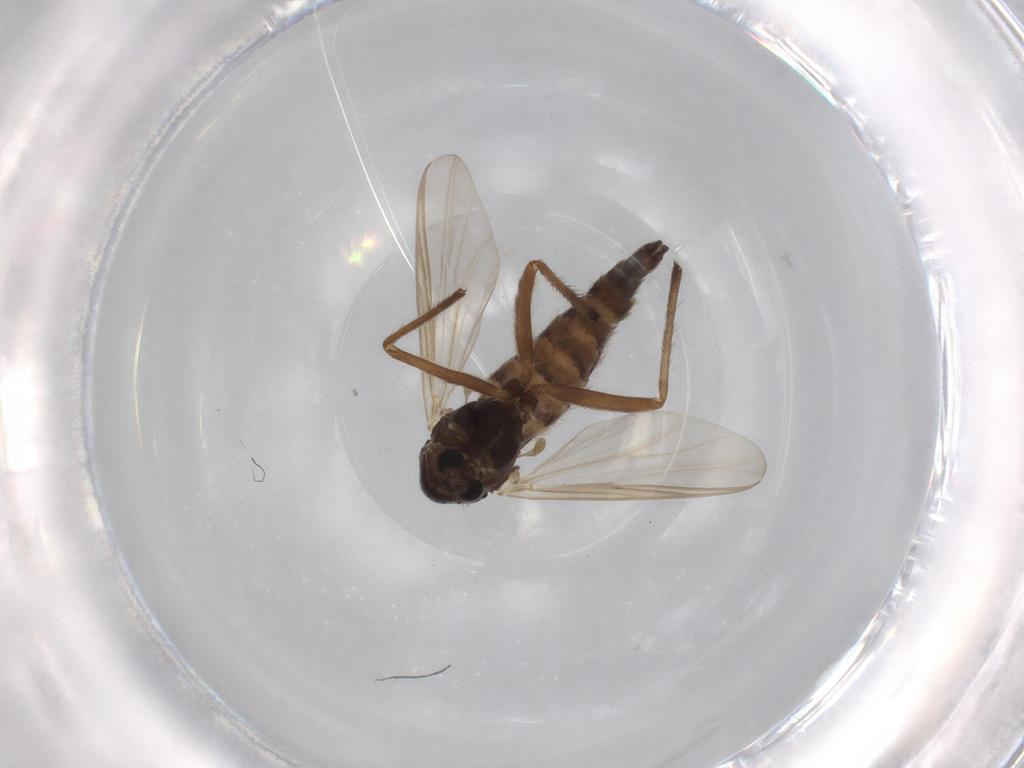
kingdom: Animalia
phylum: Arthropoda
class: Insecta
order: Diptera
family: Chironomidae
